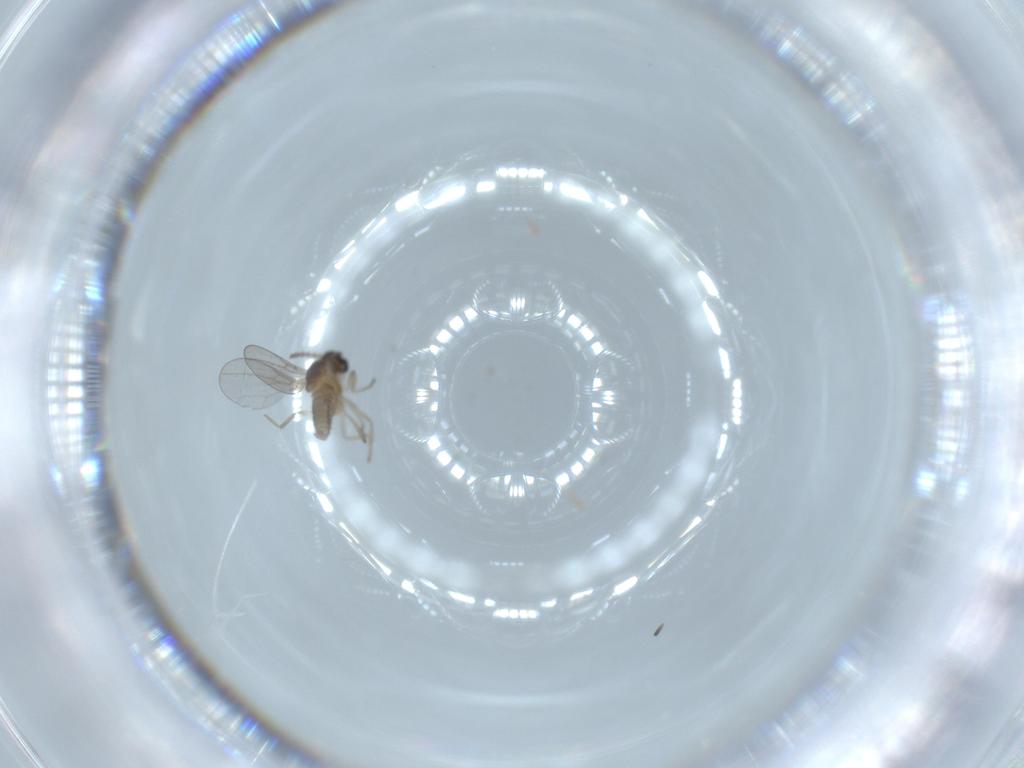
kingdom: Animalia
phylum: Arthropoda
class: Insecta
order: Diptera
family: Cecidomyiidae
